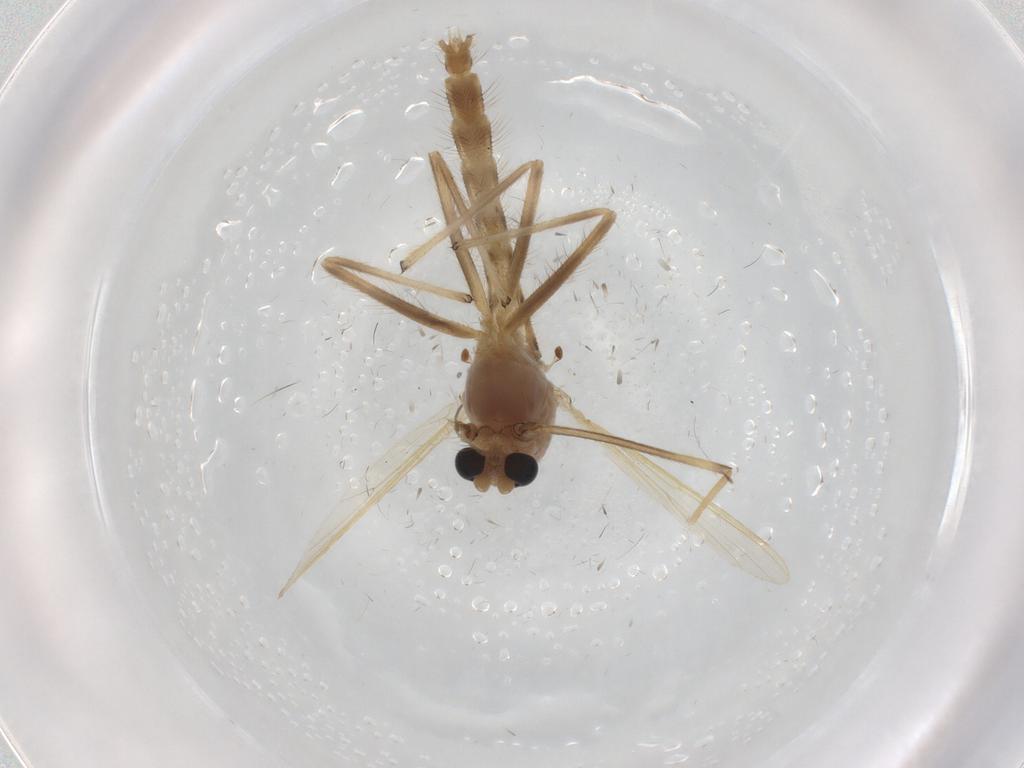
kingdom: Animalia
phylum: Arthropoda
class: Insecta
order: Diptera
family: Chironomidae
